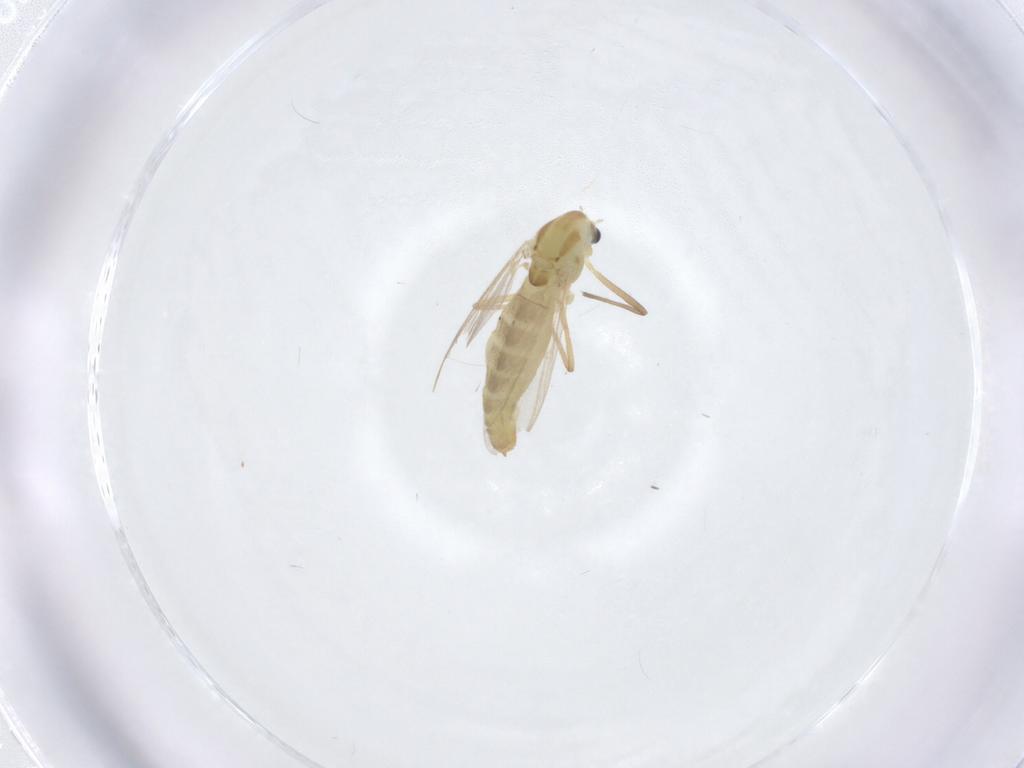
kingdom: Animalia
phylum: Arthropoda
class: Insecta
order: Diptera
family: Chironomidae
